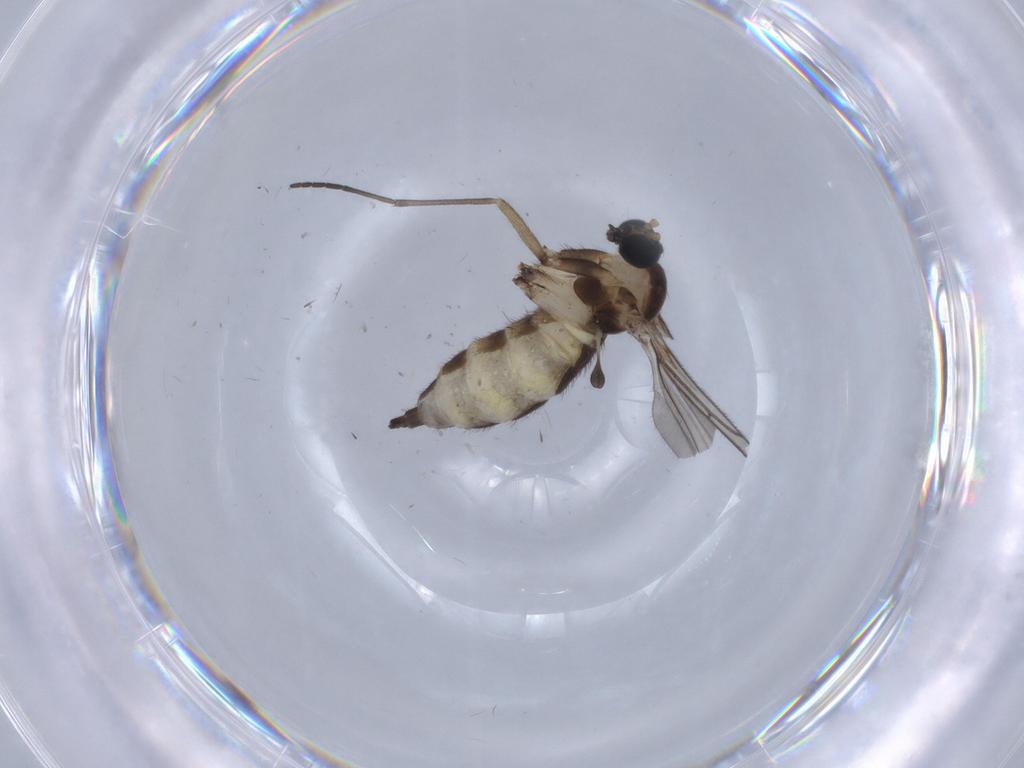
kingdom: Animalia
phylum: Arthropoda
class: Insecta
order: Diptera
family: Sciaridae
